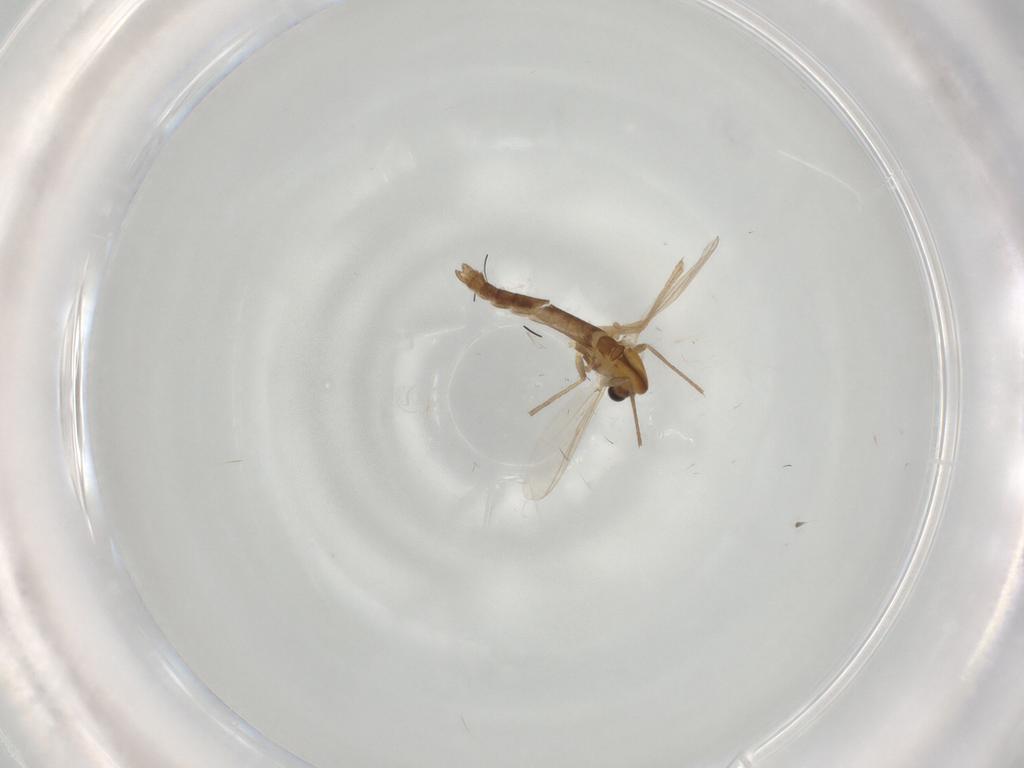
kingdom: Animalia
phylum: Arthropoda
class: Insecta
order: Diptera
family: Chironomidae
